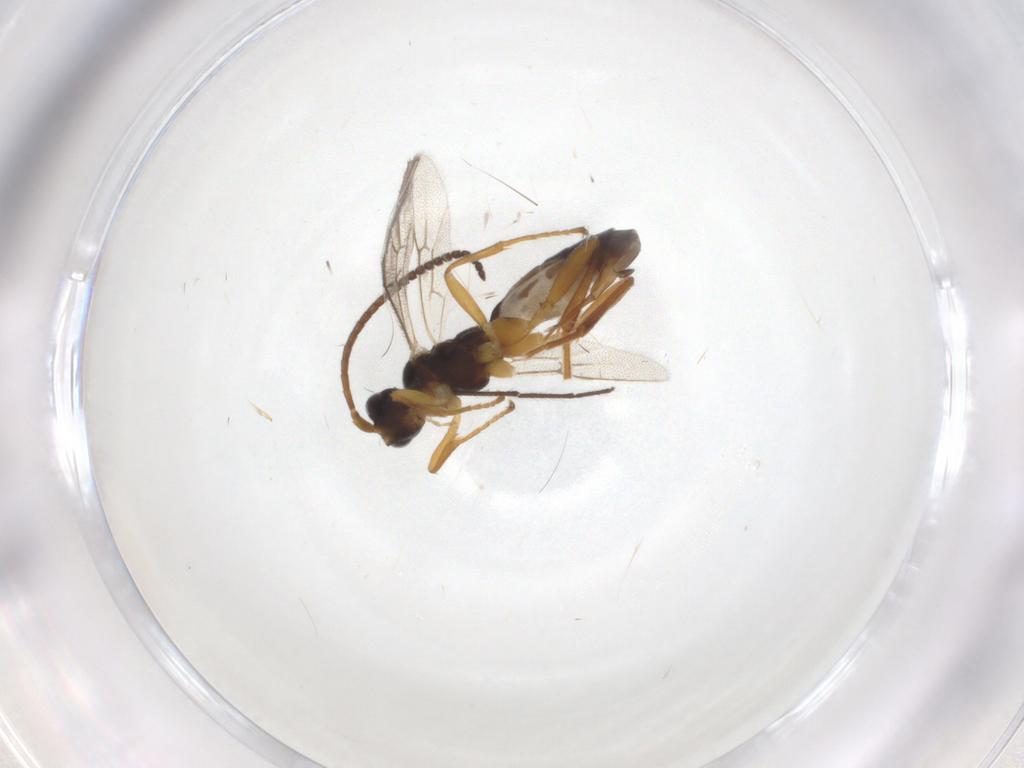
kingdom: Animalia
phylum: Arthropoda
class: Insecta
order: Hymenoptera
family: Ichneumonidae
